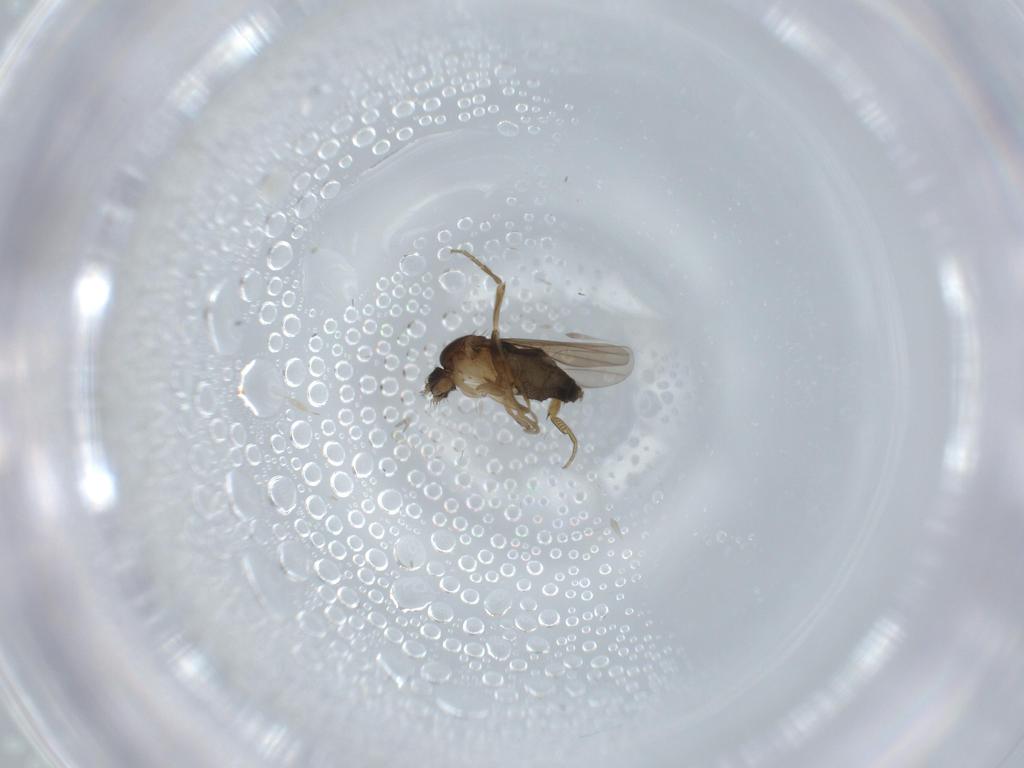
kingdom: Animalia
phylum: Arthropoda
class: Insecta
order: Diptera
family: Phoridae
